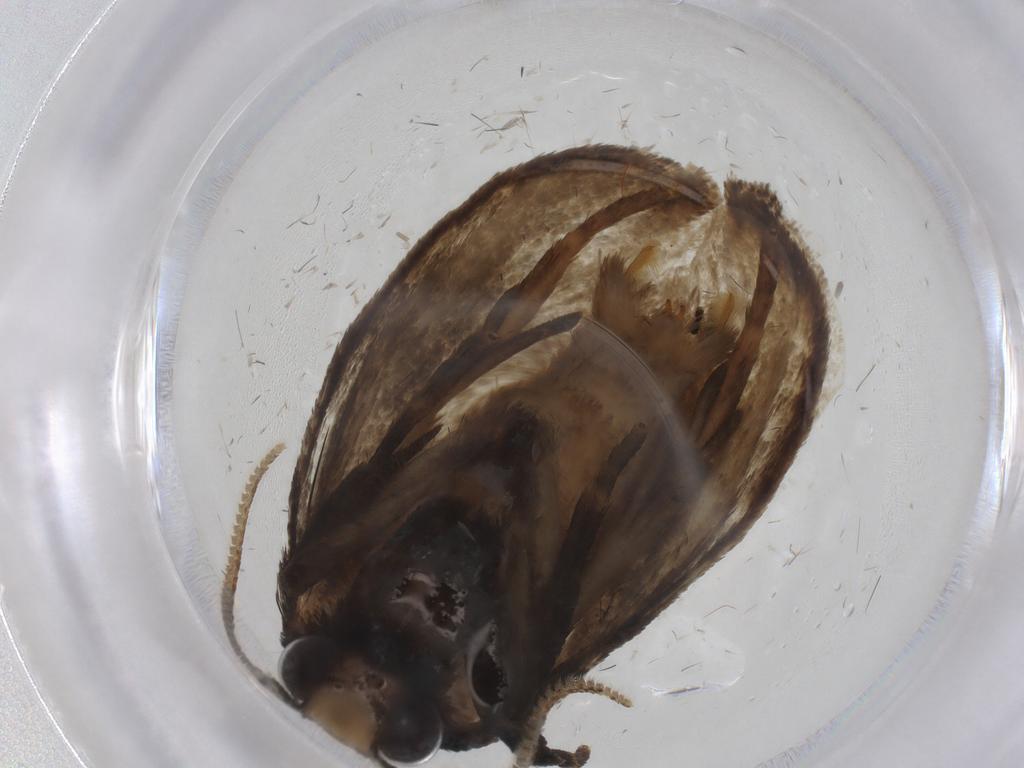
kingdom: Animalia
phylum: Arthropoda
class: Insecta
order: Lepidoptera
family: Tineidae
